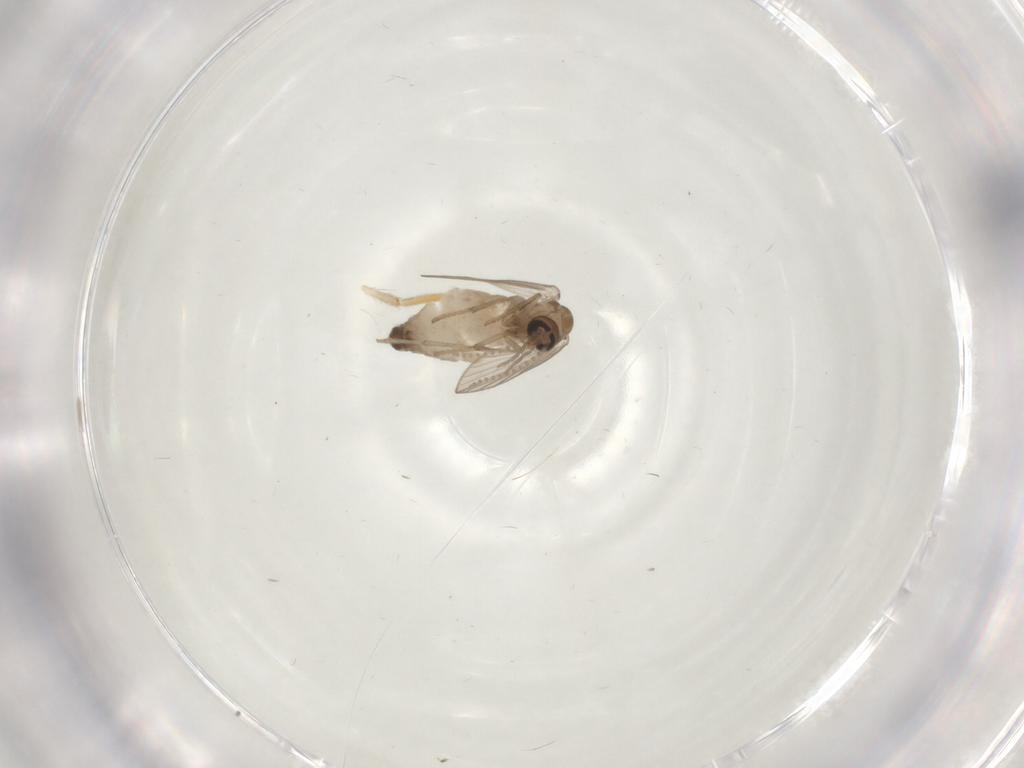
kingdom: Animalia
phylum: Arthropoda
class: Insecta
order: Diptera
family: Psychodidae
